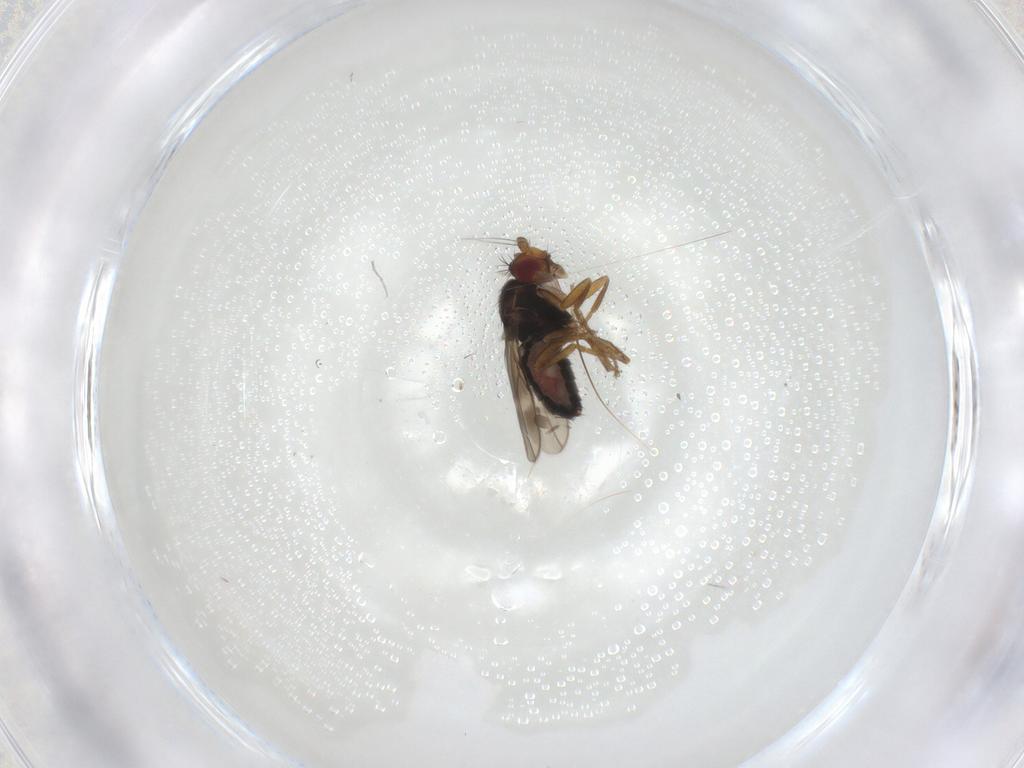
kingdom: Animalia
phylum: Arthropoda
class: Insecta
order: Diptera
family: Sphaeroceridae
